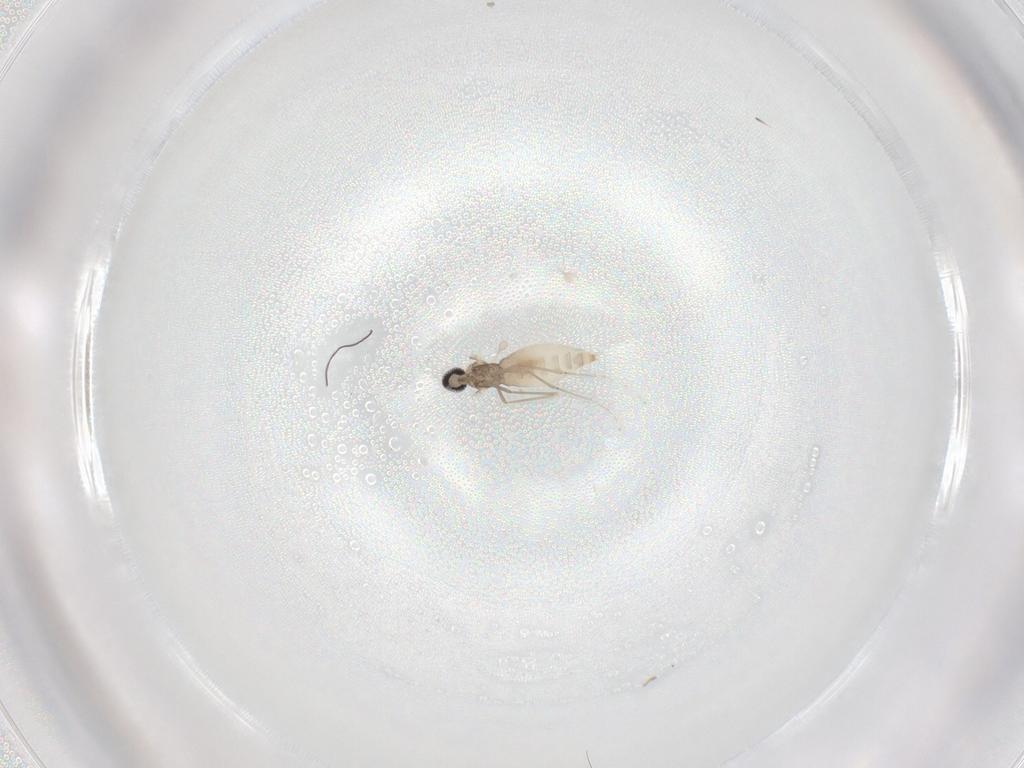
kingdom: Animalia
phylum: Arthropoda
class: Insecta
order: Diptera
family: Cecidomyiidae
